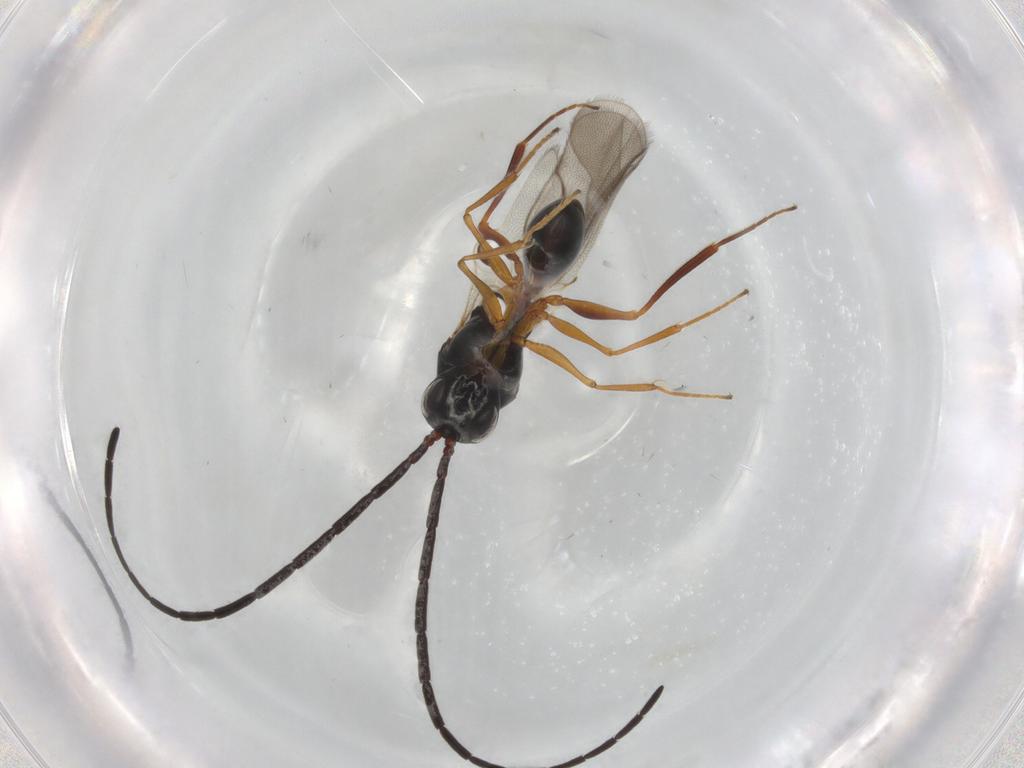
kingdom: Animalia
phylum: Arthropoda
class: Insecta
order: Hymenoptera
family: Figitidae
